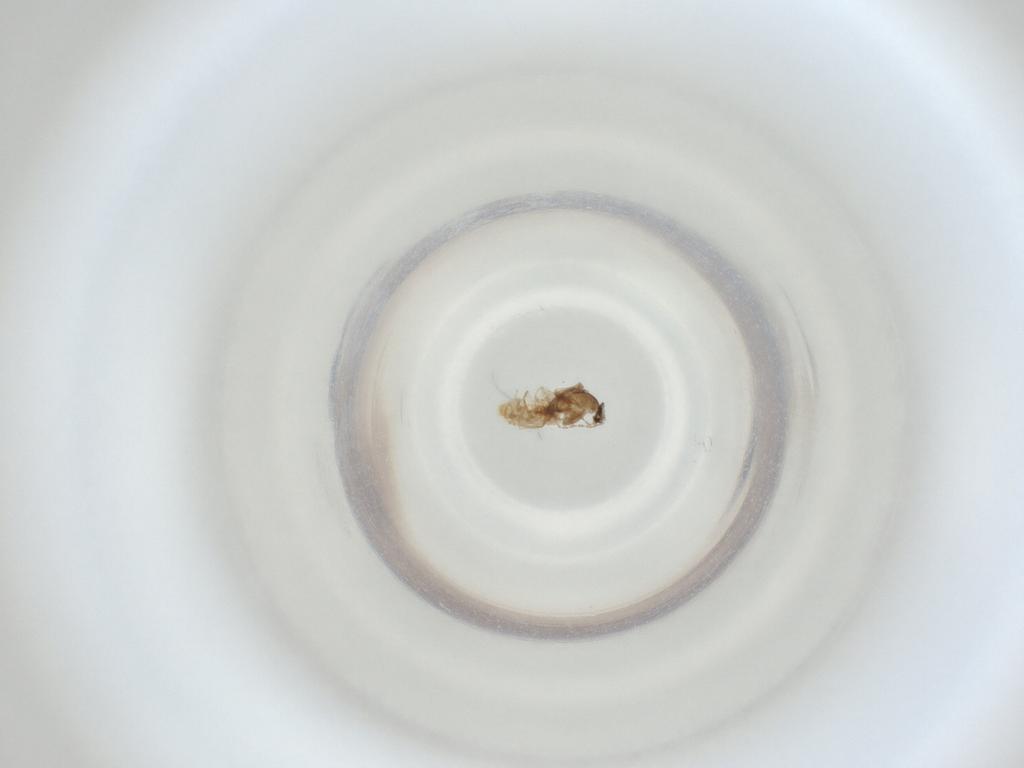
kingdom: Animalia
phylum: Arthropoda
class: Insecta
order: Diptera
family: Cecidomyiidae
